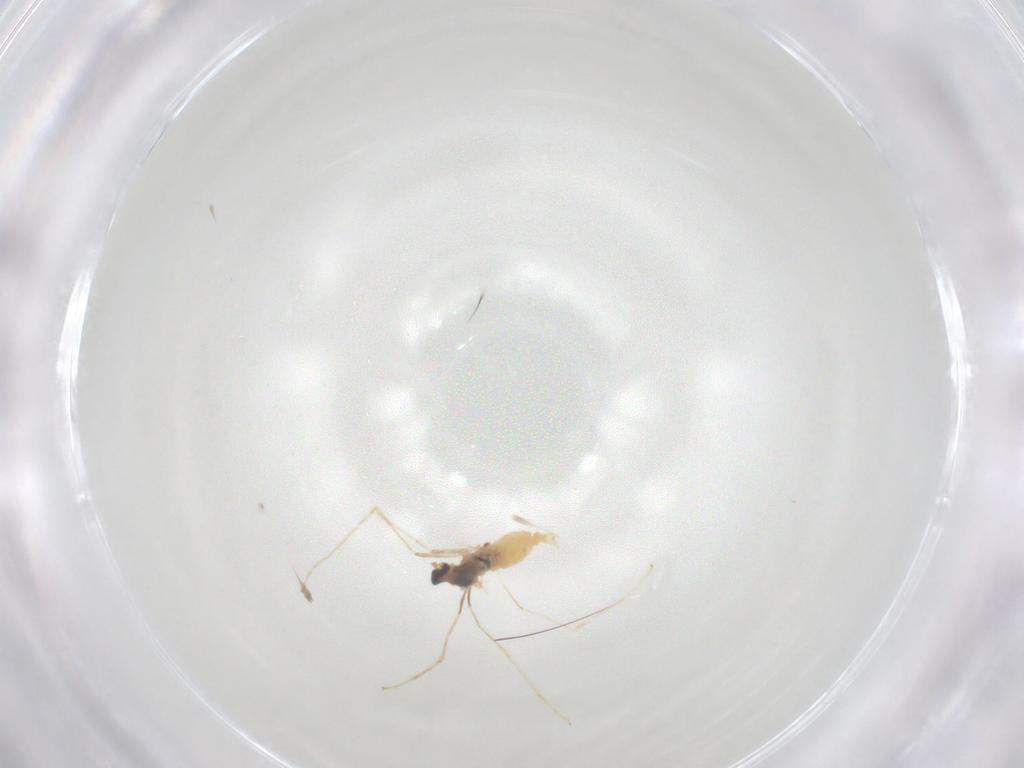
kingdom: Animalia
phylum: Arthropoda
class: Insecta
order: Diptera
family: Cecidomyiidae
